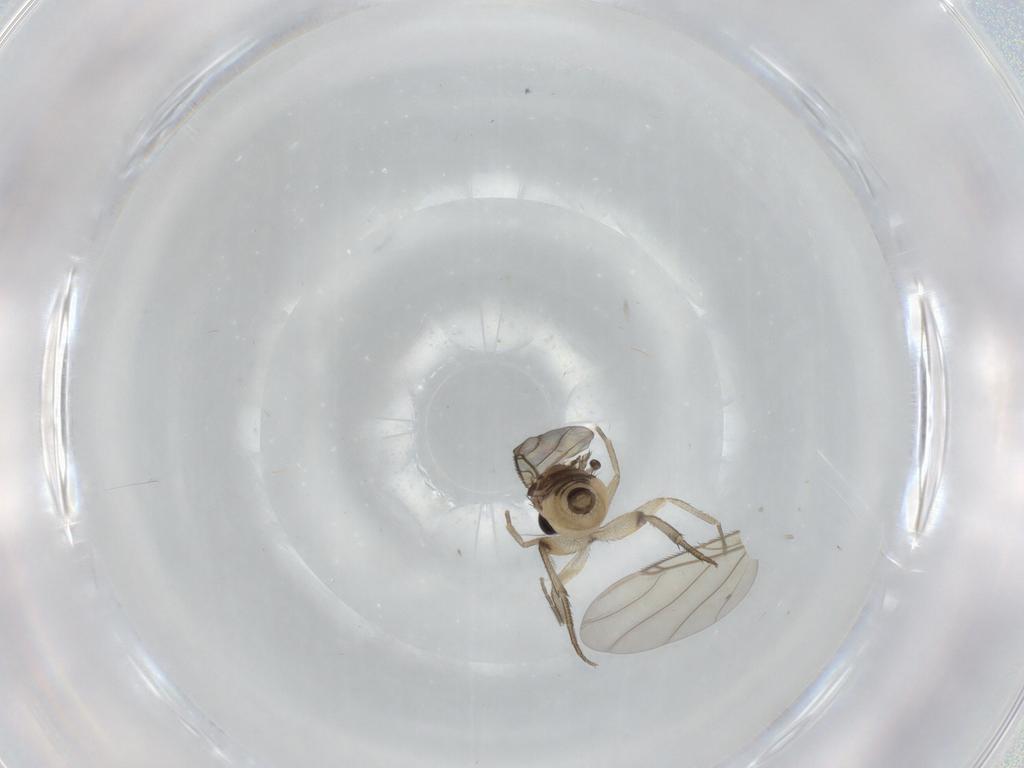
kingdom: Animalia
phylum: Arthropoda
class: Insecta
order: Diptera
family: Phoridae
